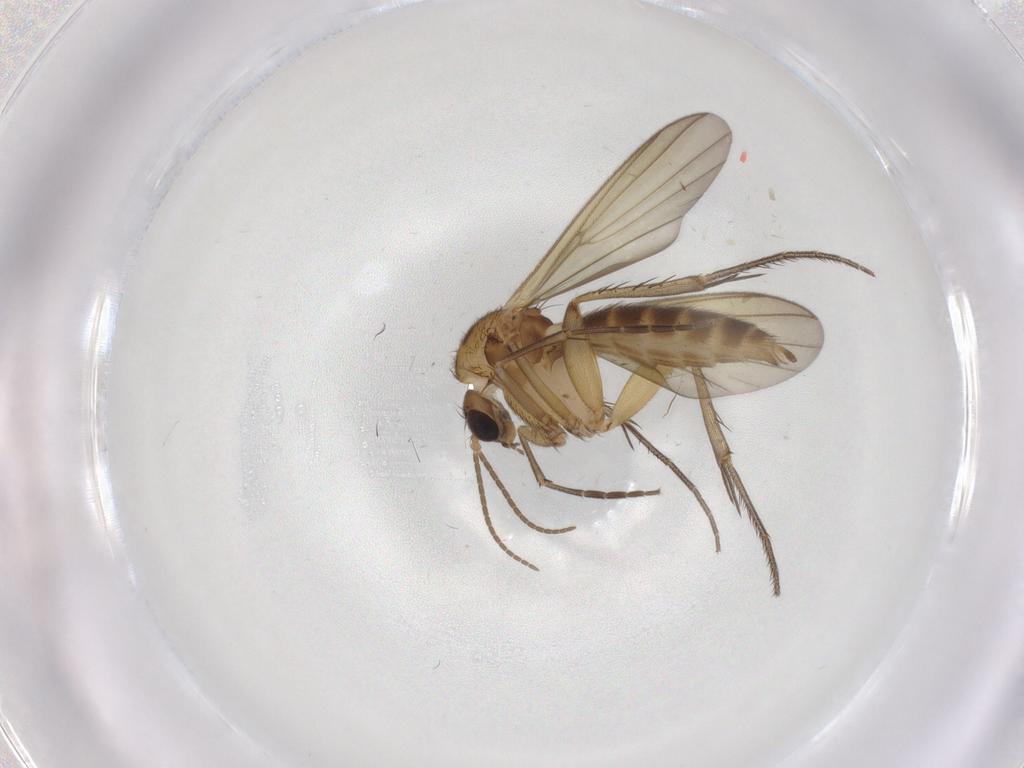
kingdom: Animalia
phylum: Arthropoda
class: Insecta
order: Diptera
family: Mycetophilidae
